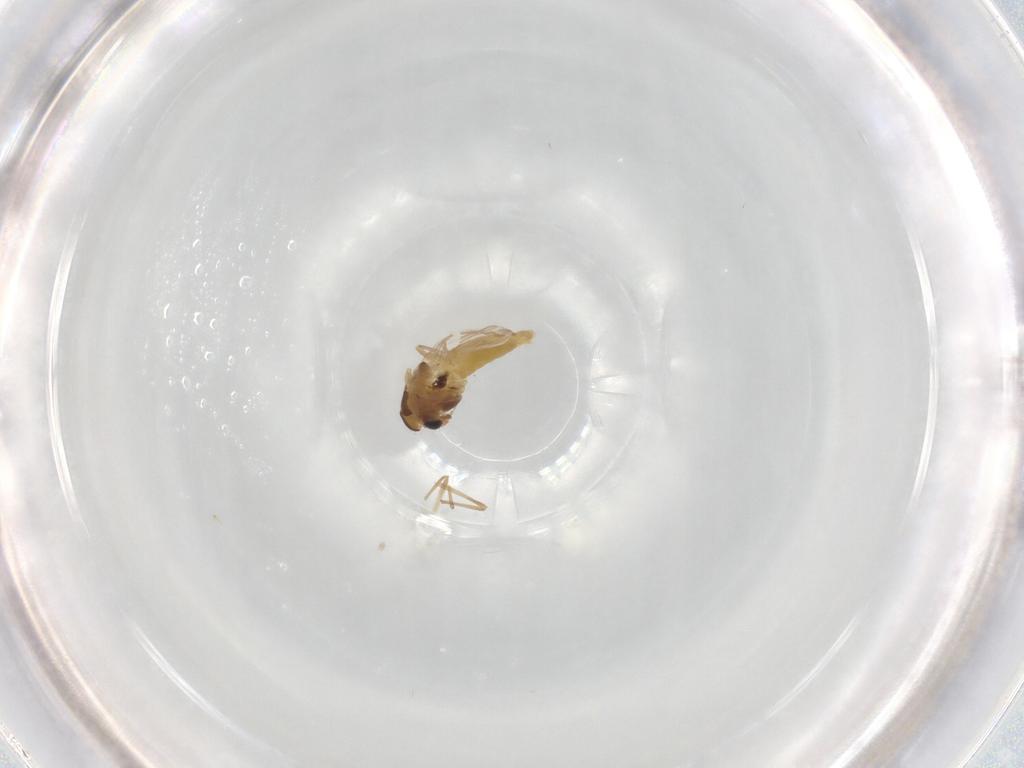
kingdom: Animalia
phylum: Arthropoda
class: Insecta
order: Diptera
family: Chironomidae
